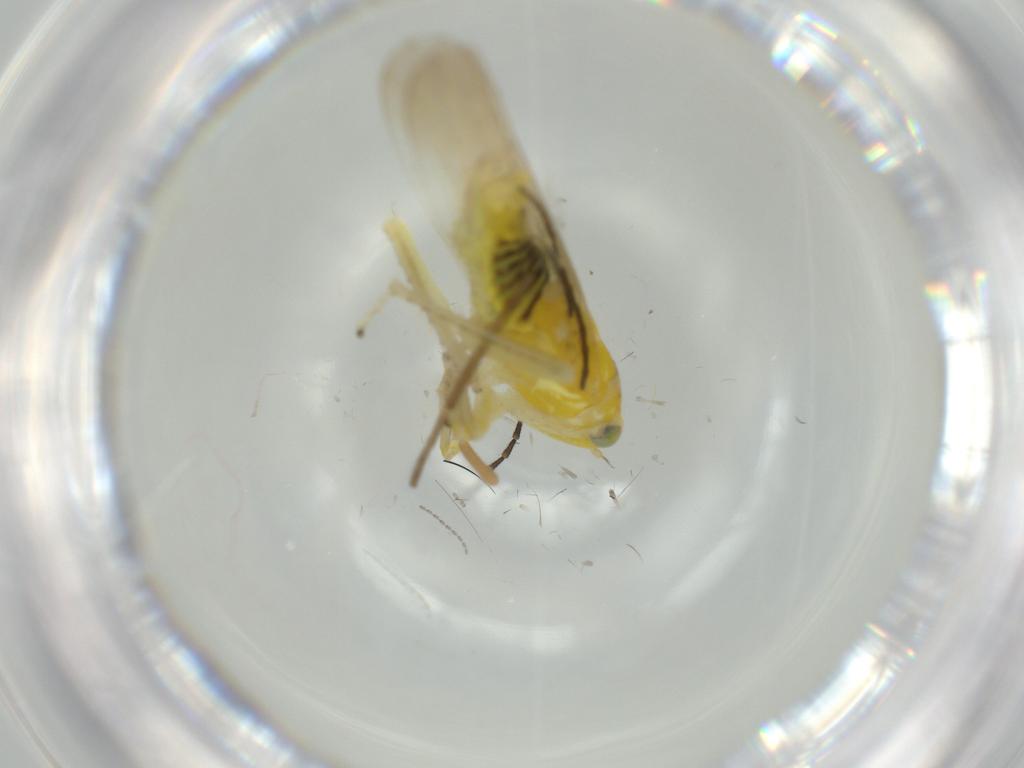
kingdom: Animalia
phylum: Arthropoda
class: Insecta
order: Hemiptera
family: Cicadellidae
